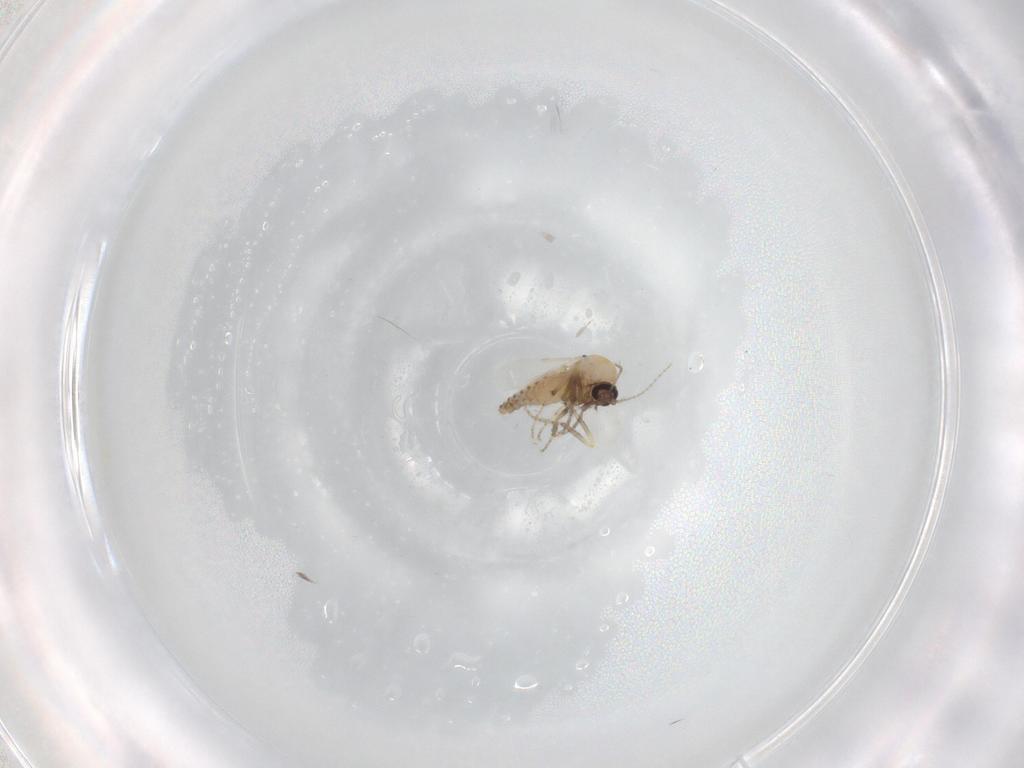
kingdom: Animalia
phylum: Arthropoda
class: Insecta
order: Diptera
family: Ceratopogonidae
